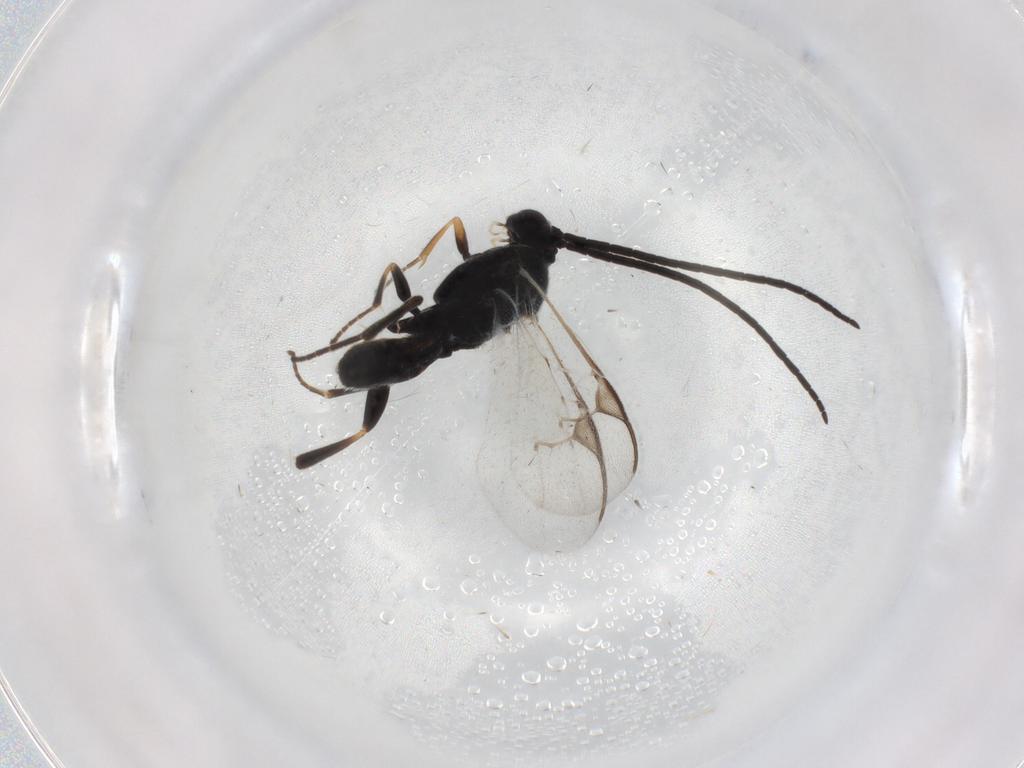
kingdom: Animalia
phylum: Arthropoda
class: Insecta
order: Hymenoptera
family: Braconidae
